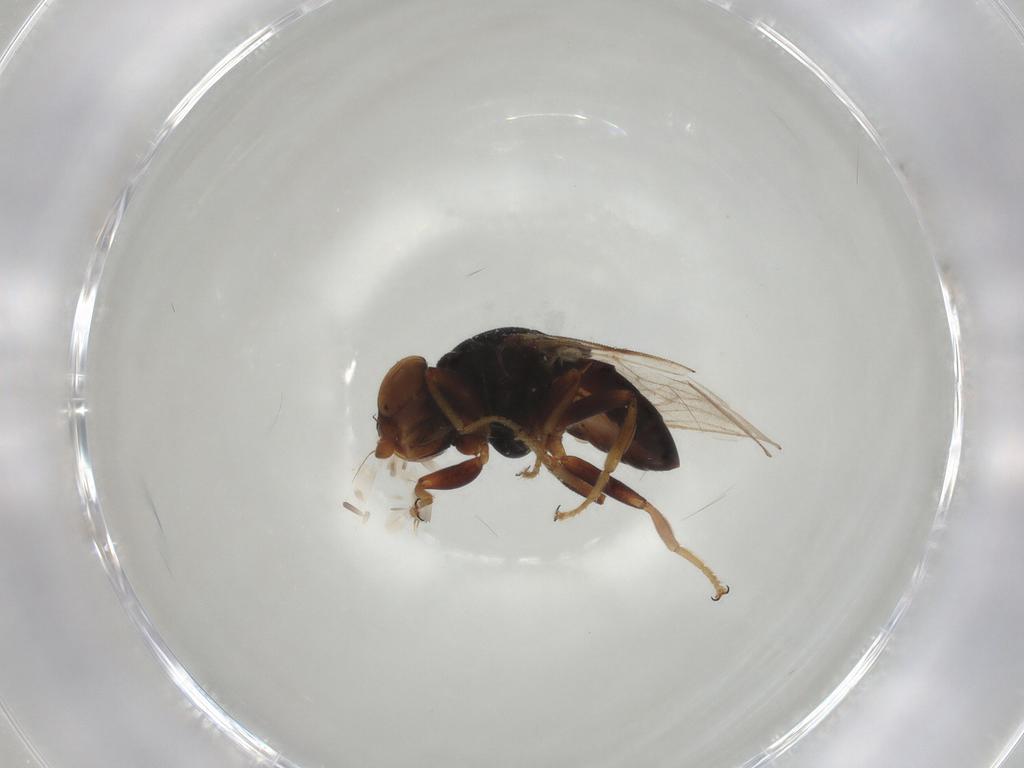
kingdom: Animalia
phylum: Arthropoda
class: Insecta
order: Diptera
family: Chloropidae
